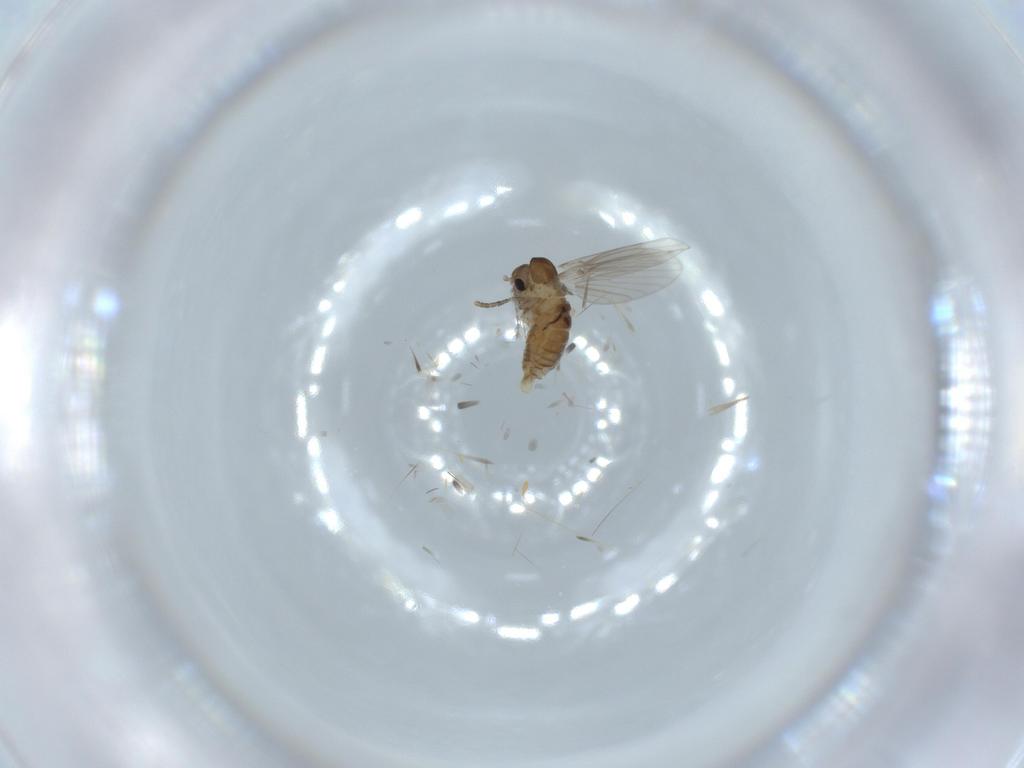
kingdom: Animalia
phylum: Arthropoda
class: Insecta
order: Diptera
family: Psychodidae
